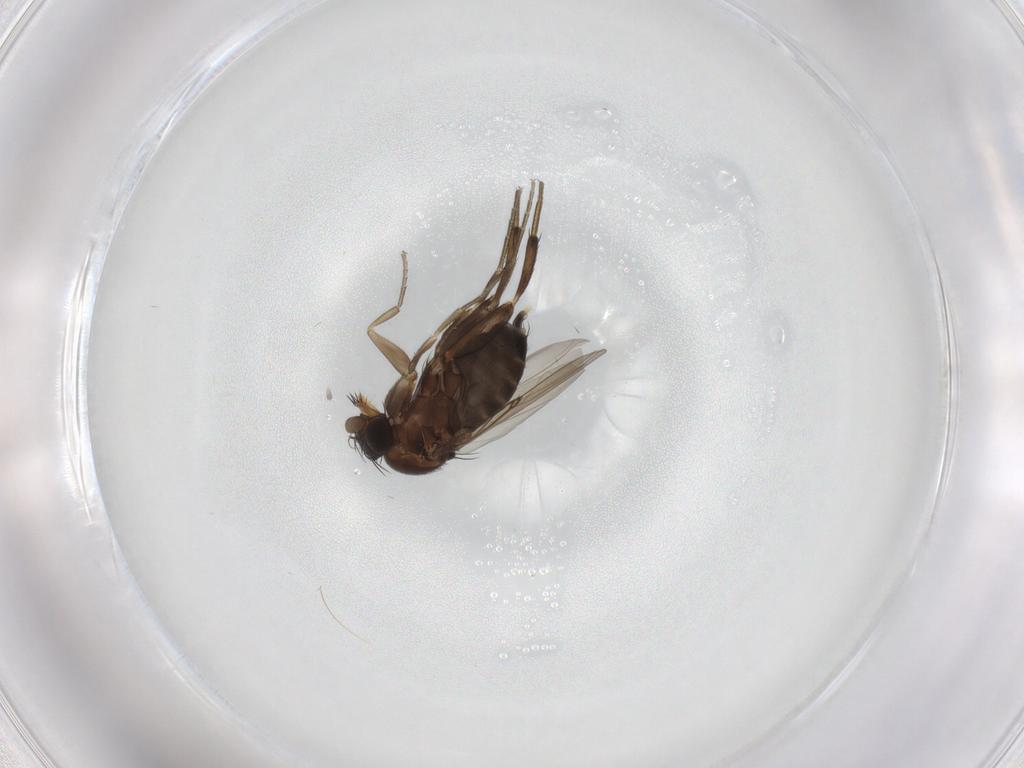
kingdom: Animalia
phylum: Arthropoda
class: Insecta
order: Diptera
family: Phoridae
